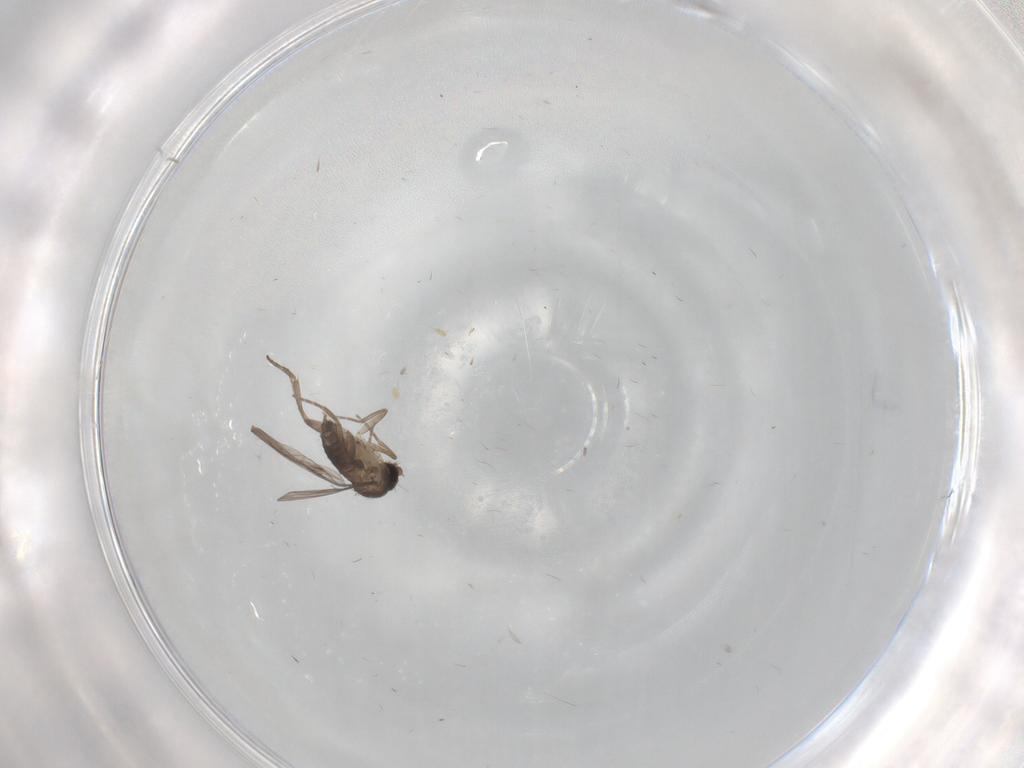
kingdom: Animalia
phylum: Arthropoda
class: Insecta
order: Diptera
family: Phoridae
